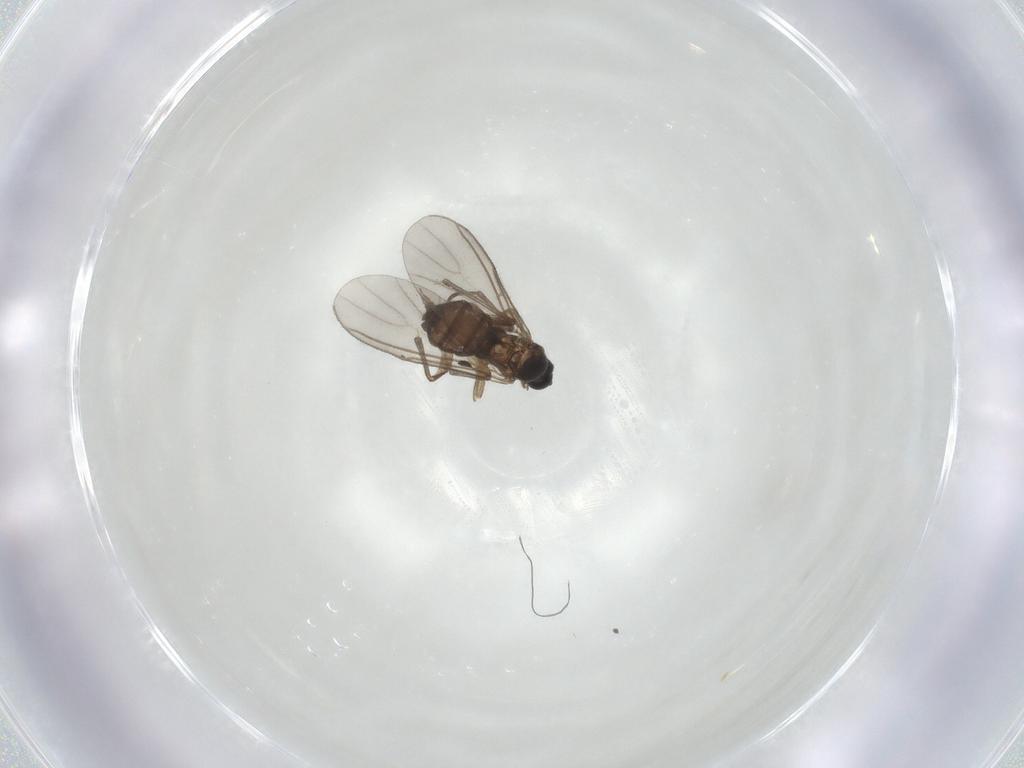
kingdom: Animalia
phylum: Arthropoda
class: Insecta
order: Diptera
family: Sciaridae
